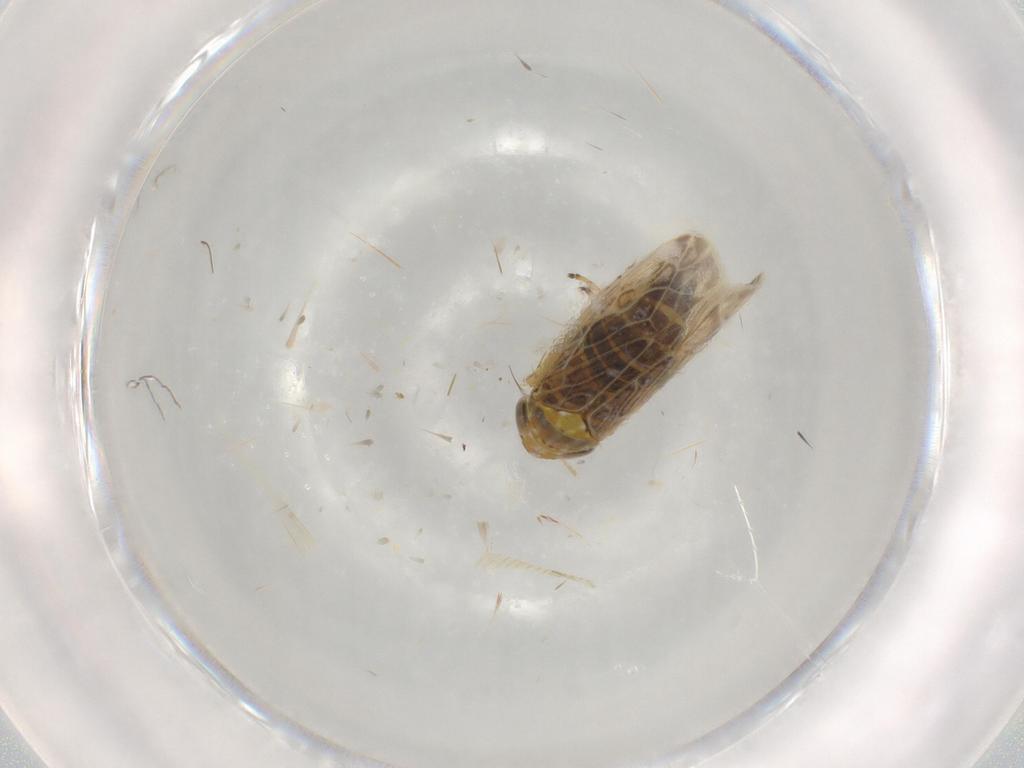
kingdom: Animalia
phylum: Arthropoda
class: Insecta
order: Hemiptera
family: Cicadellidae
